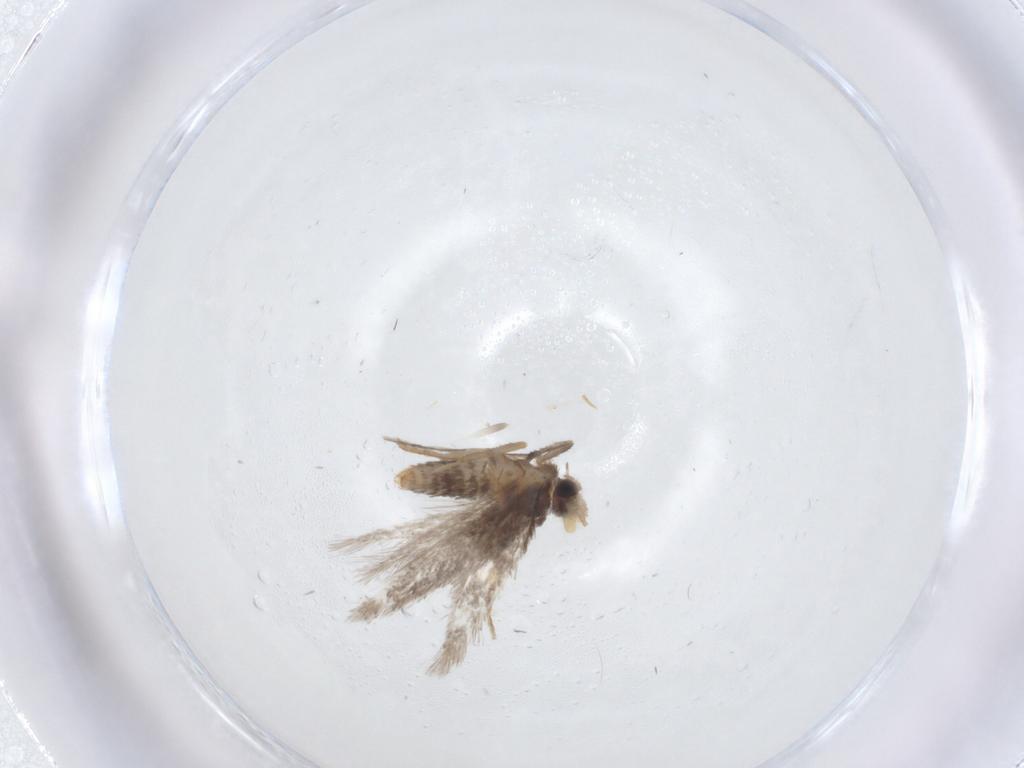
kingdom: Animalia
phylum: Arthropoda
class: Insecta
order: Lepidoptera
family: Nepticulidae
